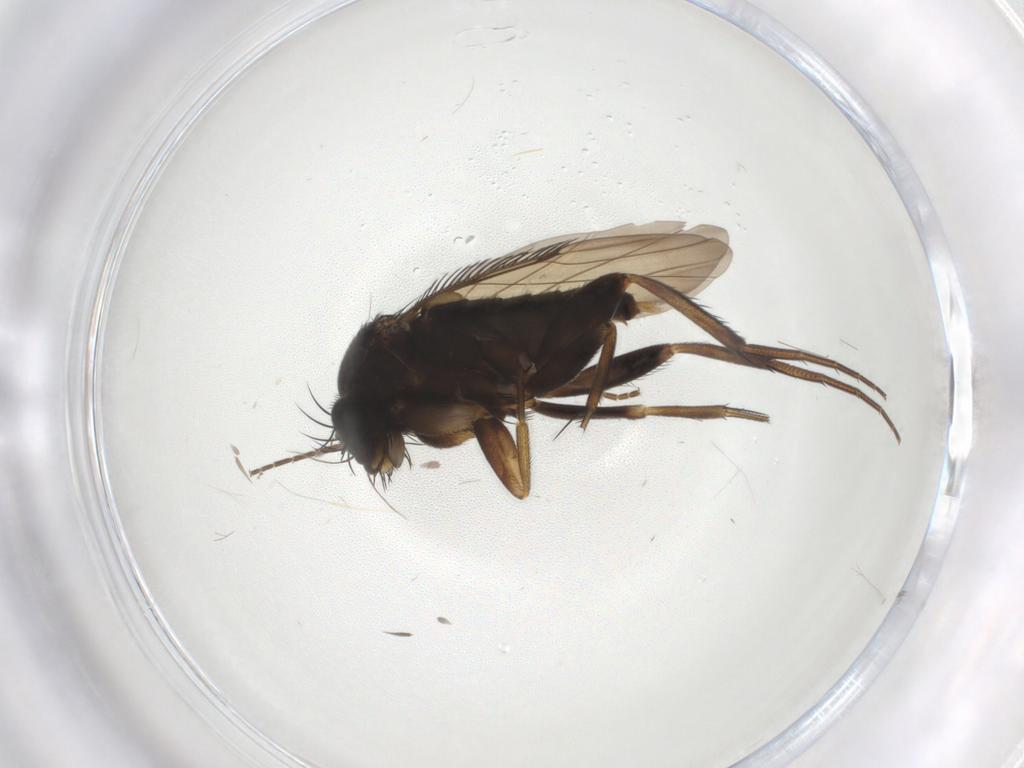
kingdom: Animalia
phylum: Arthropoda
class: Insecta
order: Diptera
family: Phoridae
